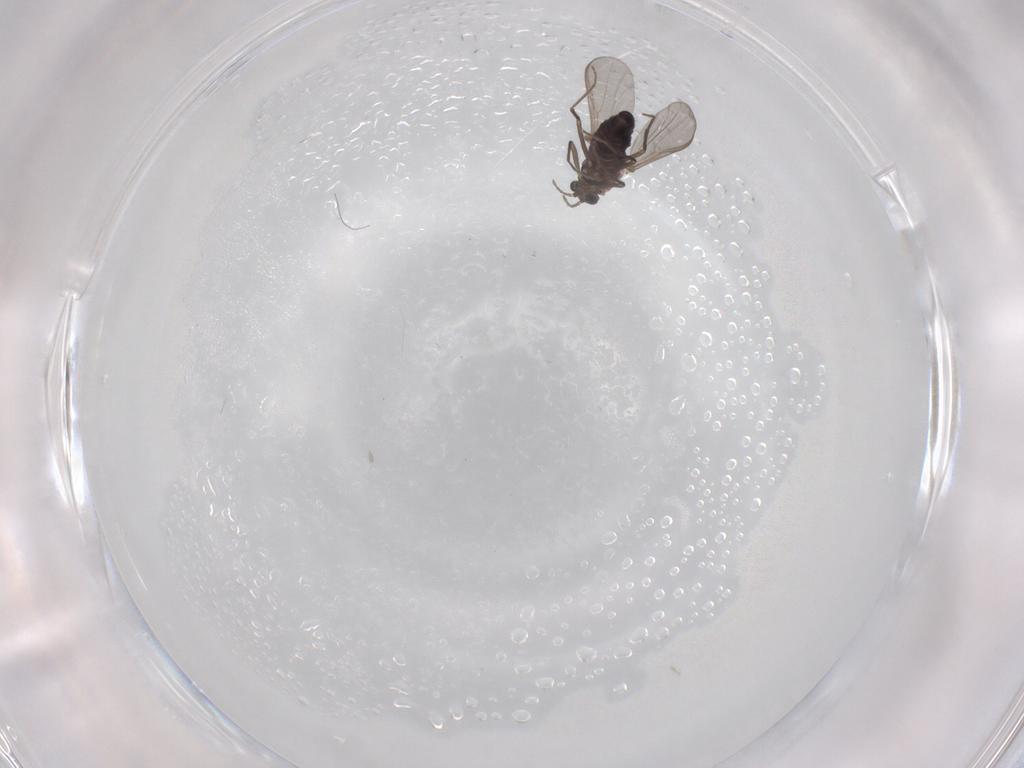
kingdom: Animalia
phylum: Arthropoda
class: Insecta
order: Diptera
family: Chironomidae
